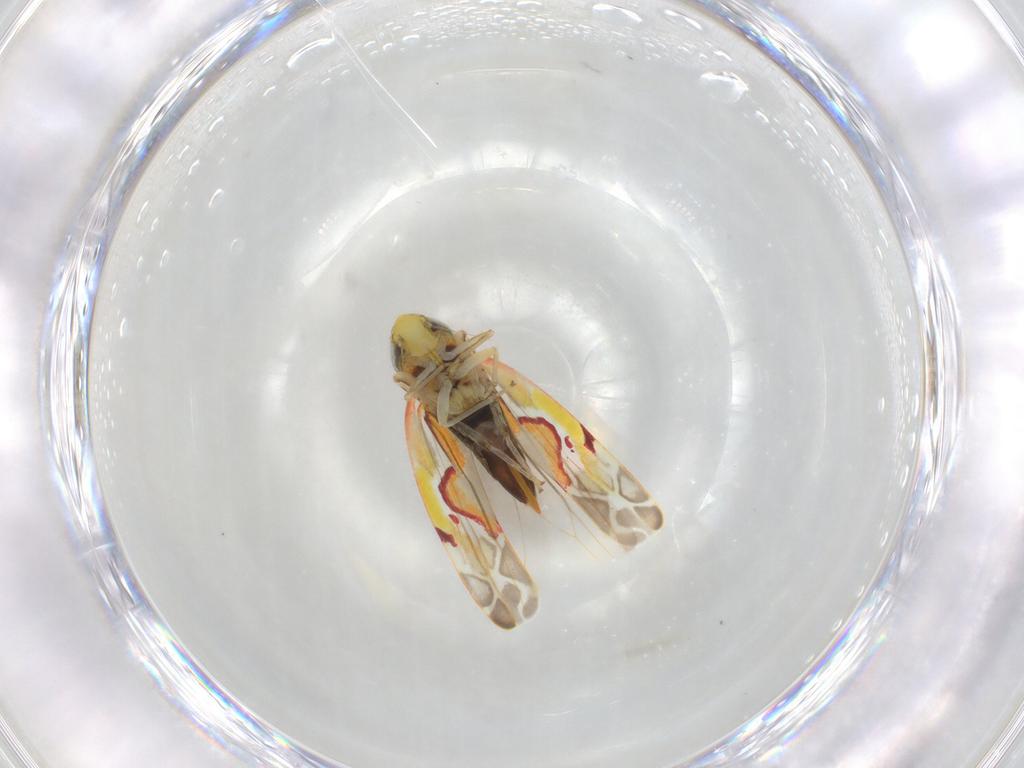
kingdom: Animalia
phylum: Arthropoda
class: Insecta
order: Hemiptera
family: Cicadellidae
